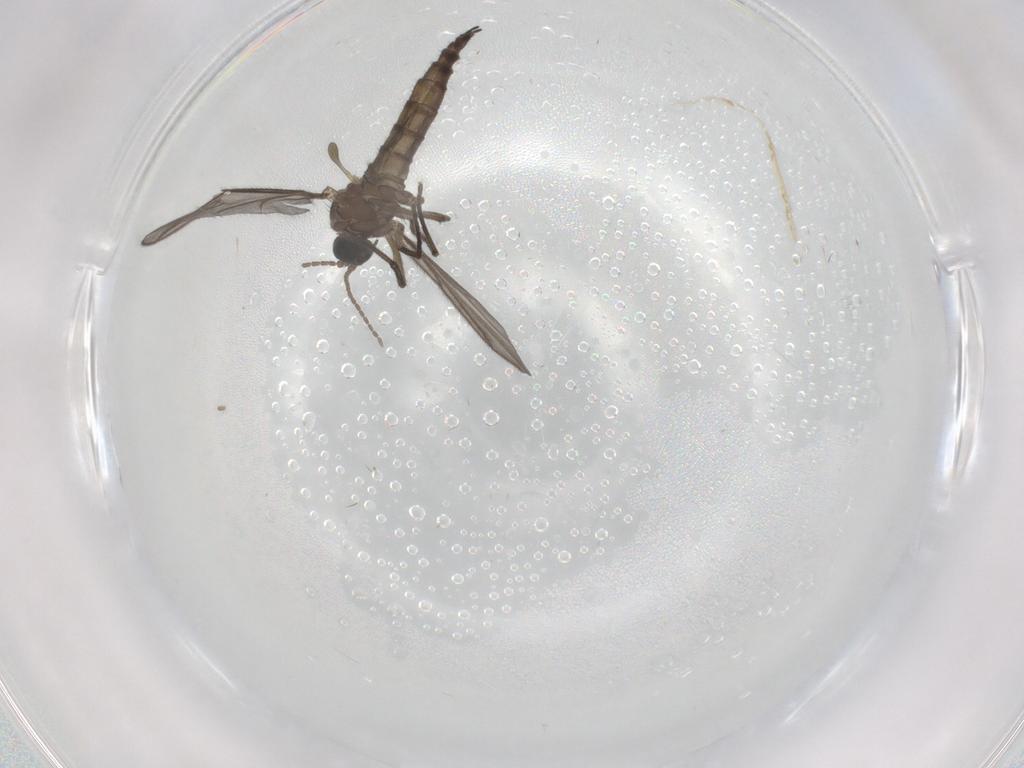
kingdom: Animalia
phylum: Arthropoda
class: Insecta
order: Diptera
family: Sciaridae
